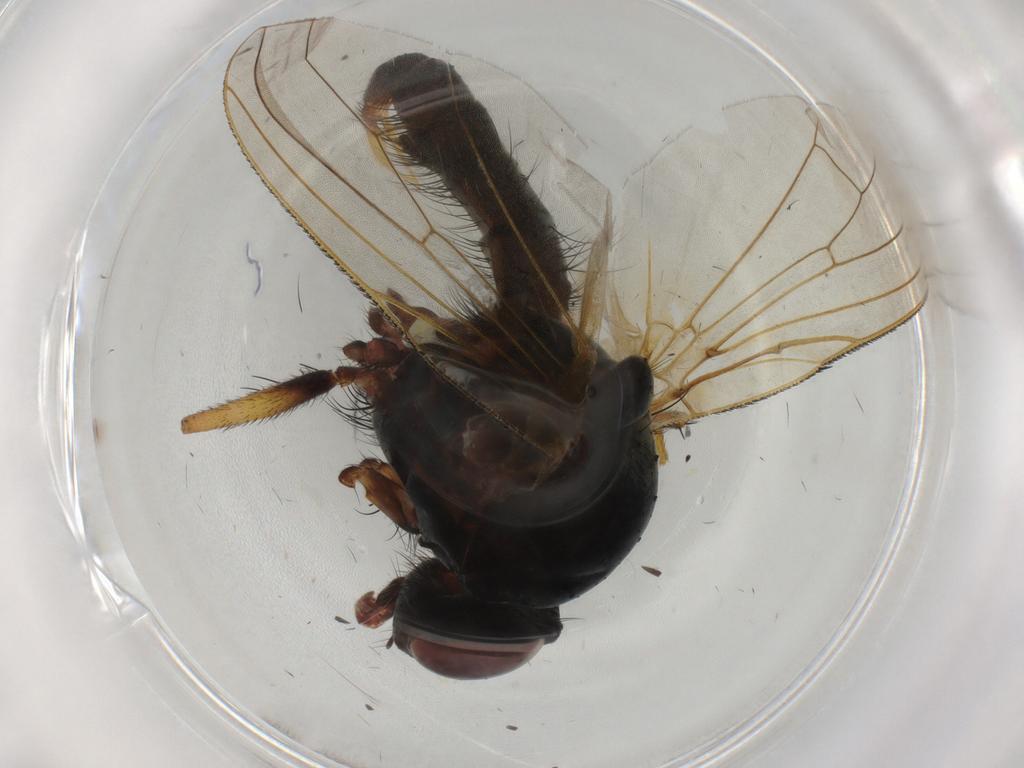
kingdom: Animalia
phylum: Arthropoda
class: Insecta
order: Diptera
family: Anthomyiidae
